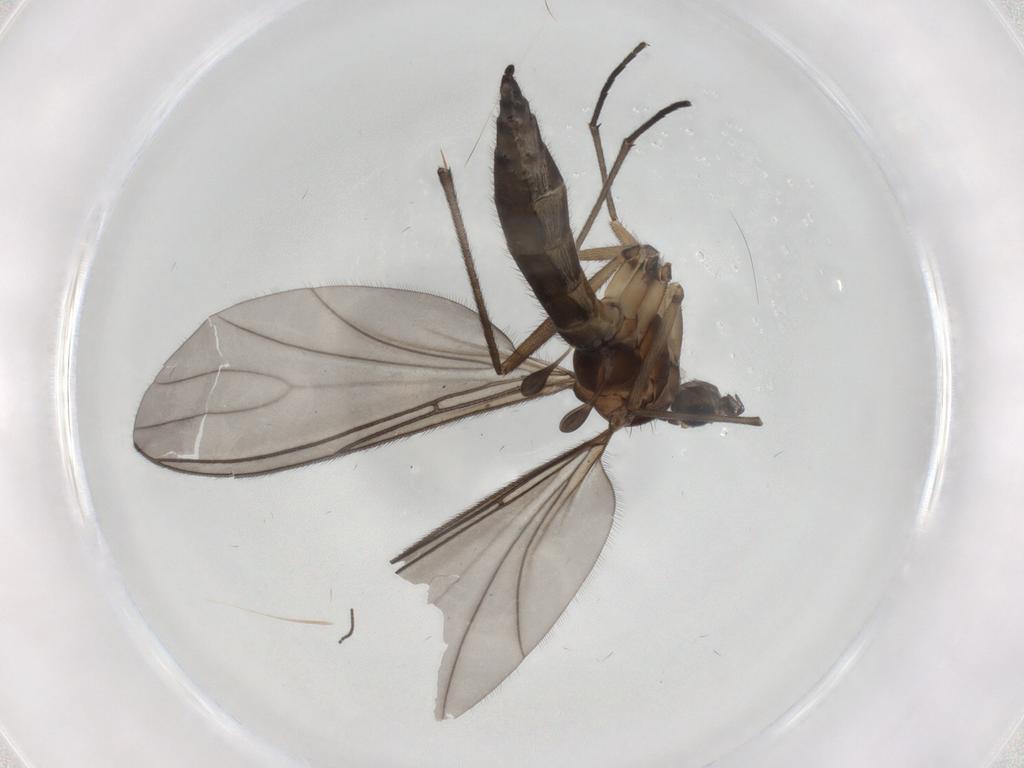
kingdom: Animalia
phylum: Arthropoda
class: Insecta
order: Diptera
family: Sciaridae
